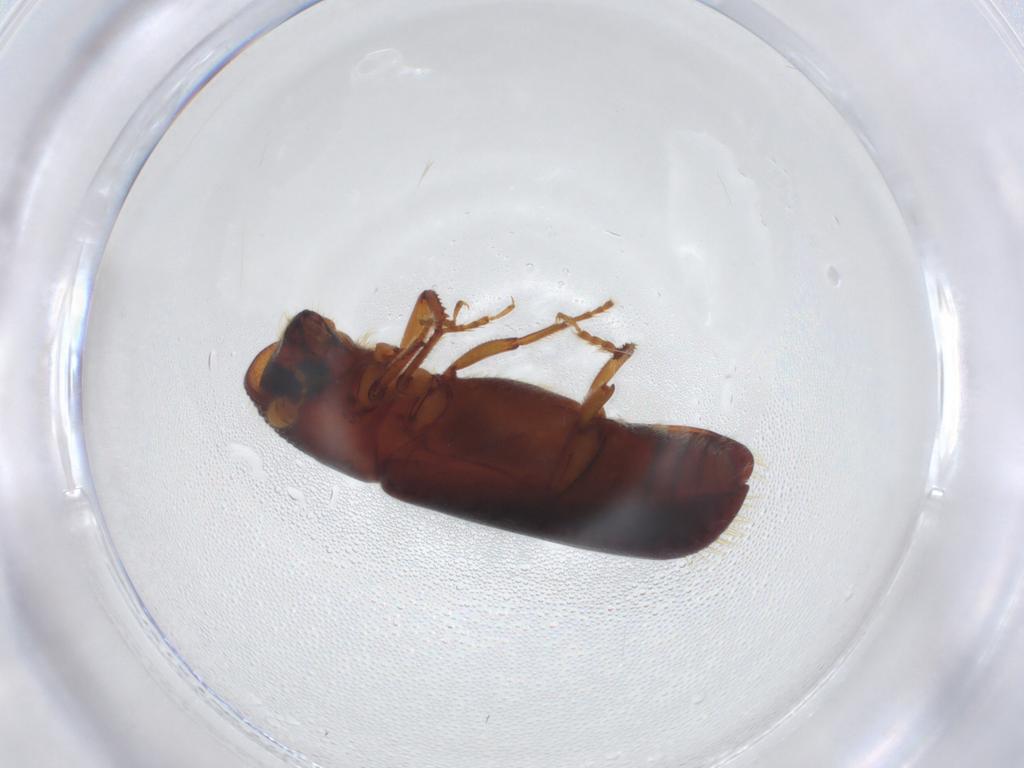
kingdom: Animalia
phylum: Arthropoda
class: Insecta
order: Coleoptera
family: Curculionidae
